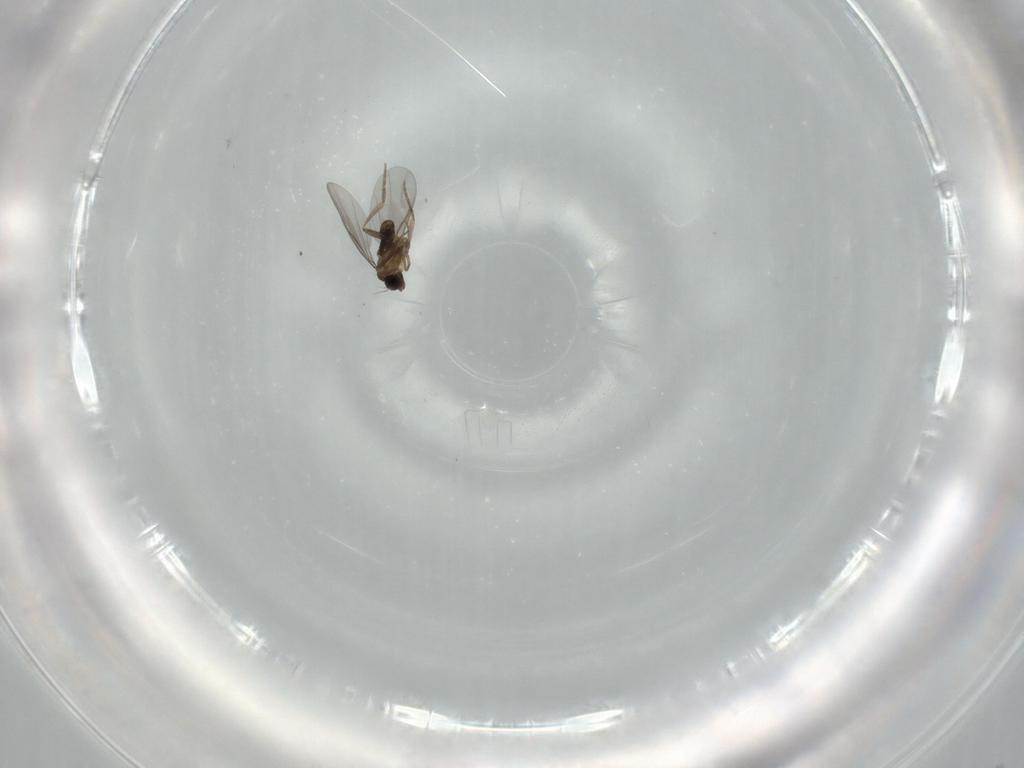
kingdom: Animalia
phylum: Arthropoda
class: Insecta
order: Diptera
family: Phoridae
